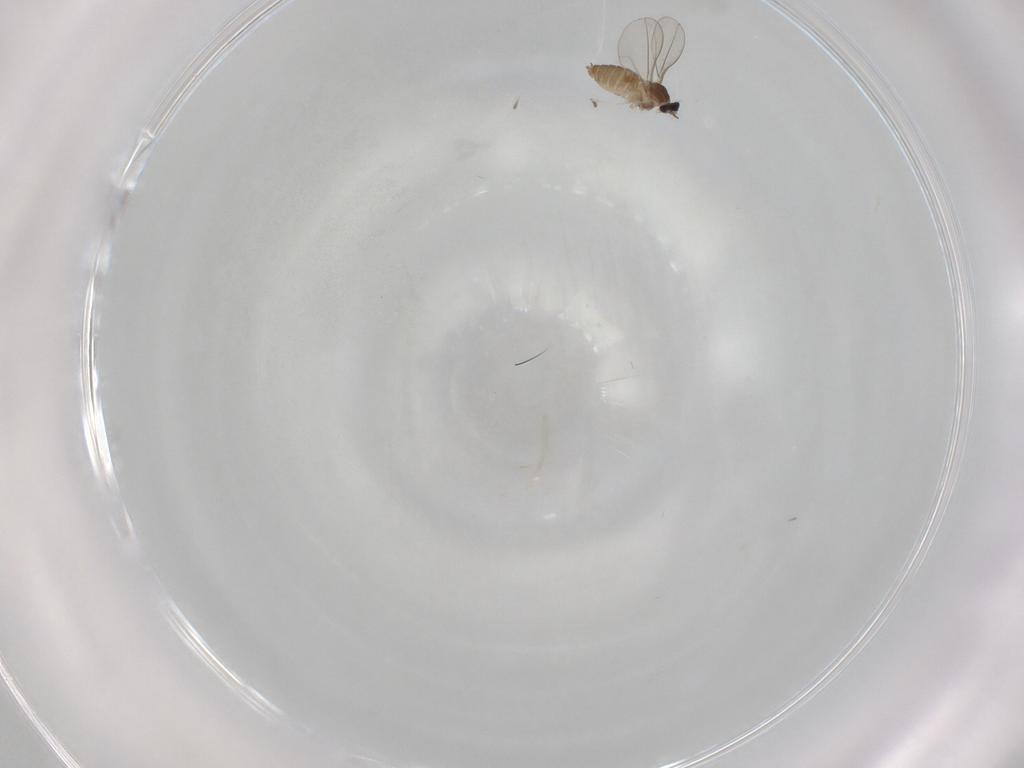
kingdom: Animalia
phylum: Arthropoda
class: Insecta
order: Diptera
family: Cecidomyiidae
